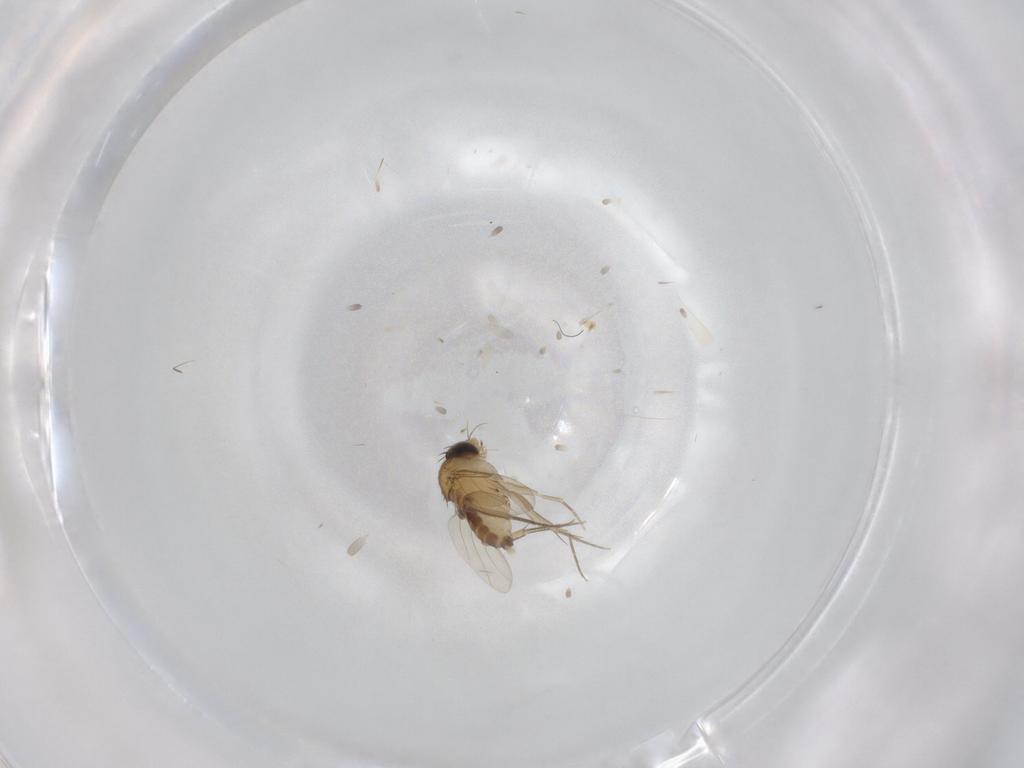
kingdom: Animalia
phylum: Arthropoda
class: Insecta
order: Diptera
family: Phoridae
